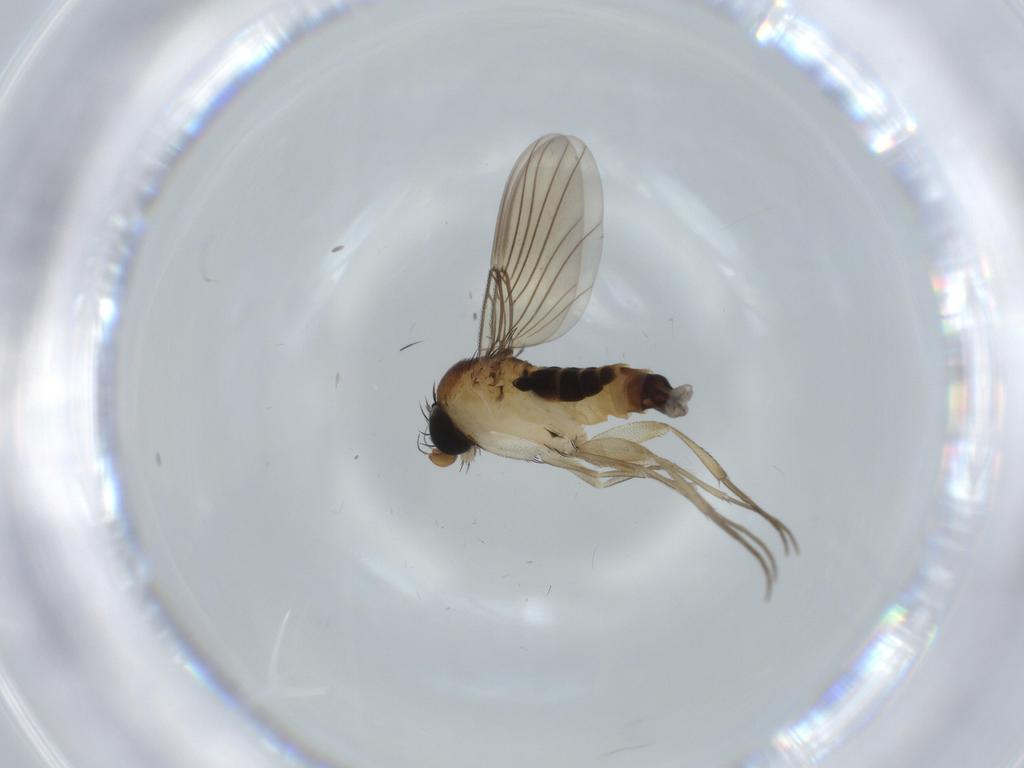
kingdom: Animalia
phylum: Arthropoda
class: Insecta
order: Diptera
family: Phoridae
